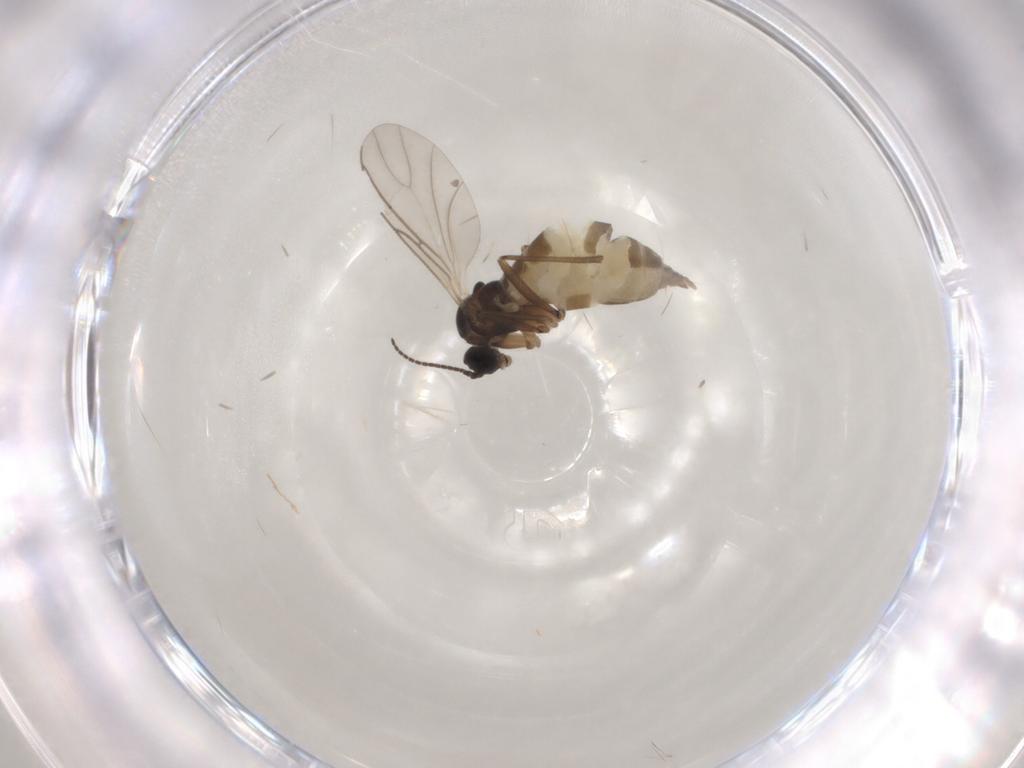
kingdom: Animalia
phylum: Arthropoda
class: Insecta
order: Diptera
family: Sciaridae
